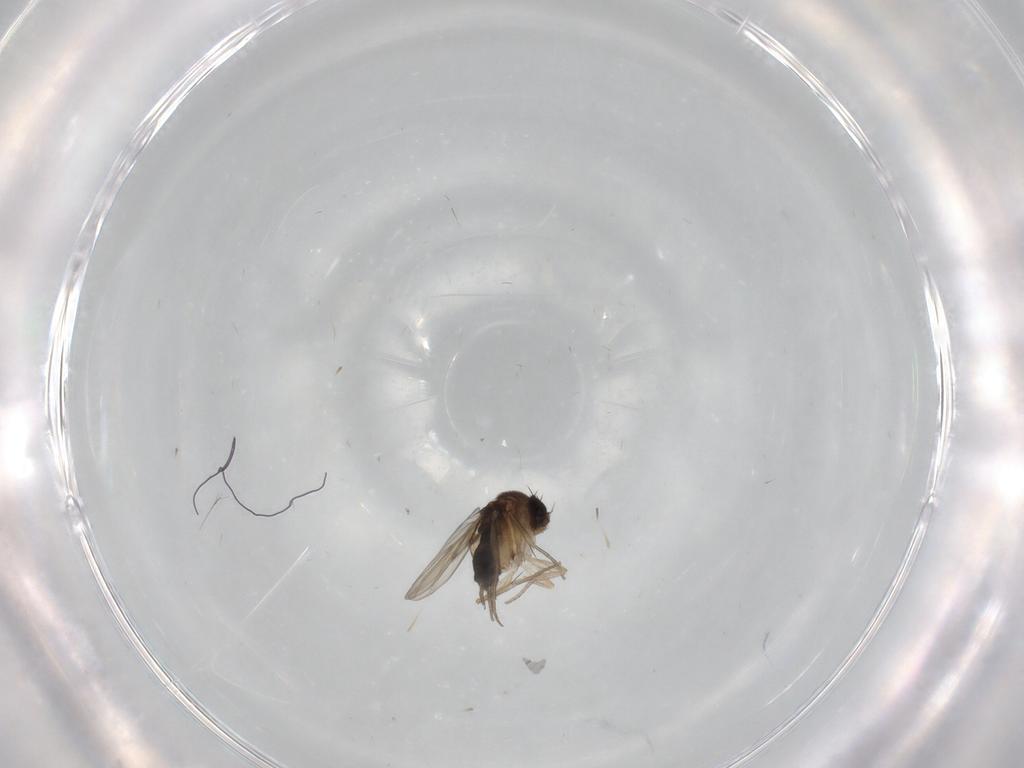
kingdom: Animalia
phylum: Arthropoda
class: Insecta
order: Diptera
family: Phoridae
